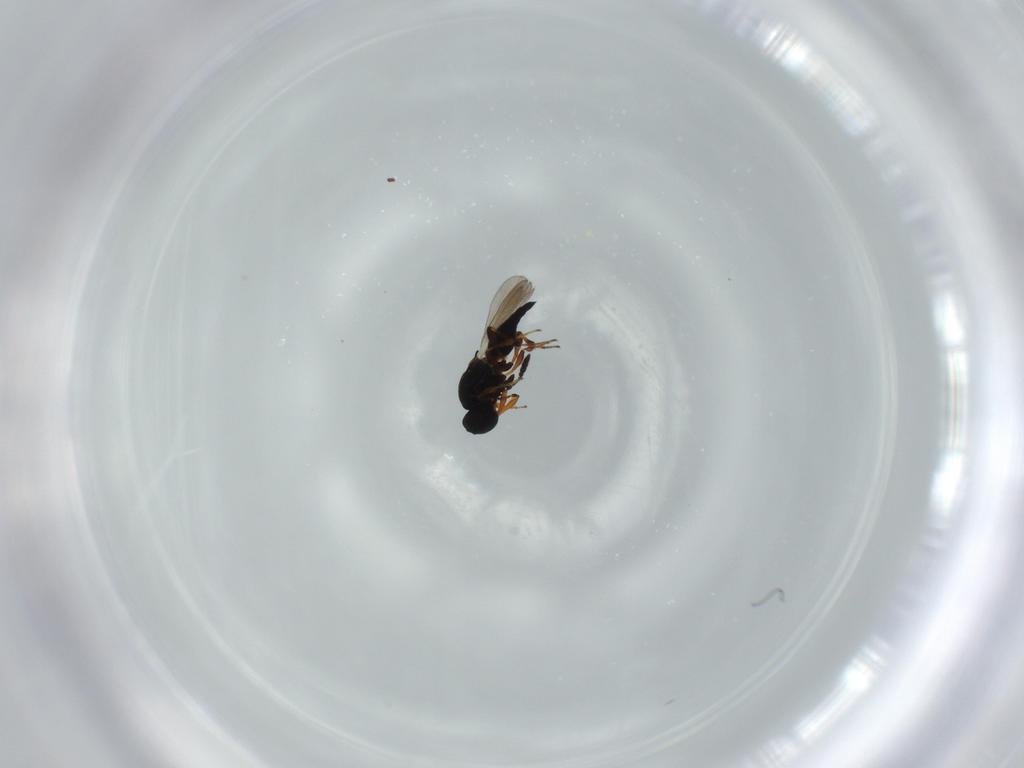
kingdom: Animalia
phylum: Arthropoda
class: Insecta
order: Hymenoptera
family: Platygastridae
